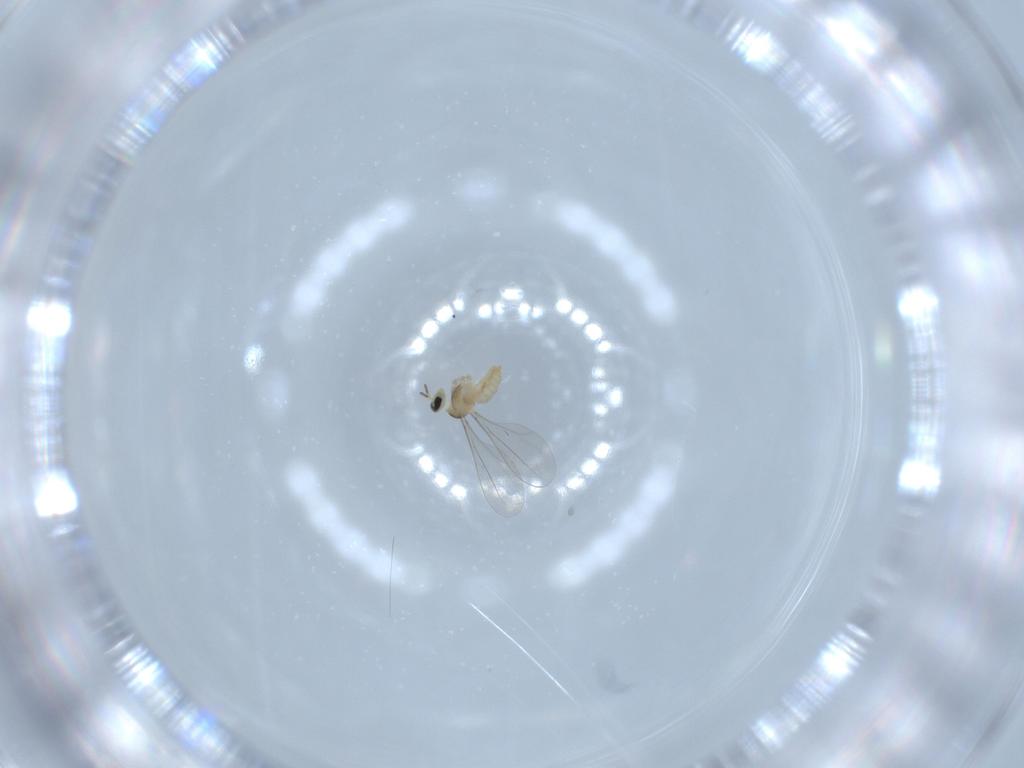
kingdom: Animalia
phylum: Arthropoda
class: Insecta
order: Diptera
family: Cecidomyiidae
